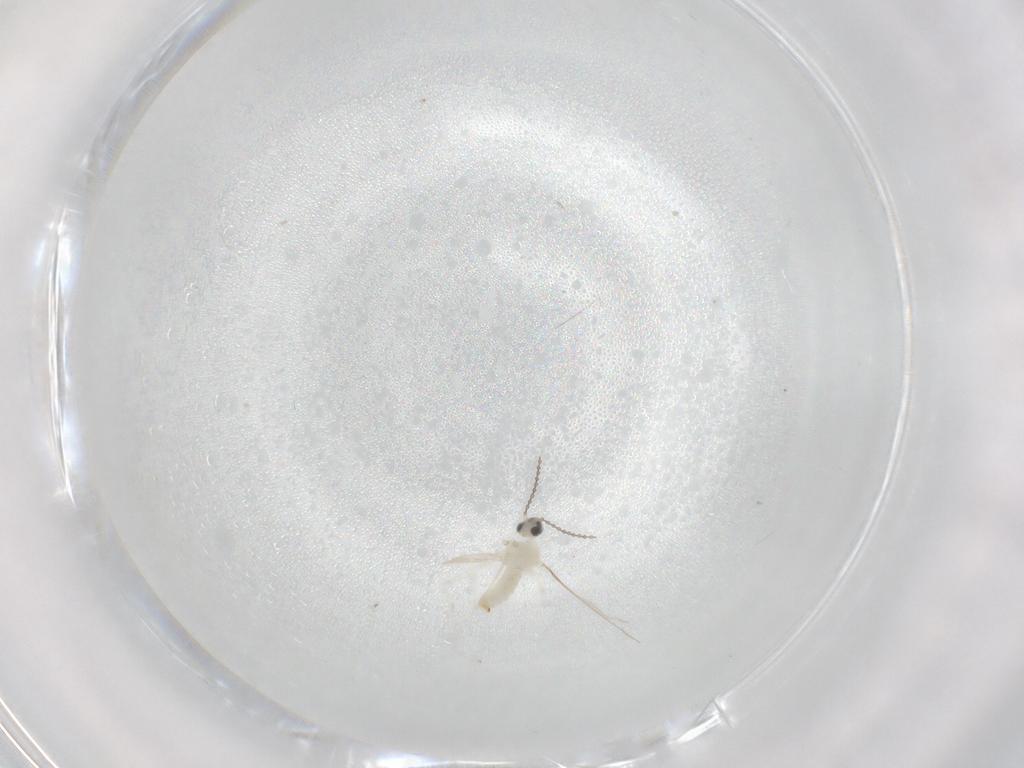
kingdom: Animalia
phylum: Arthropoda
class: Insecta
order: Diptera
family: Cecidomyiidae
